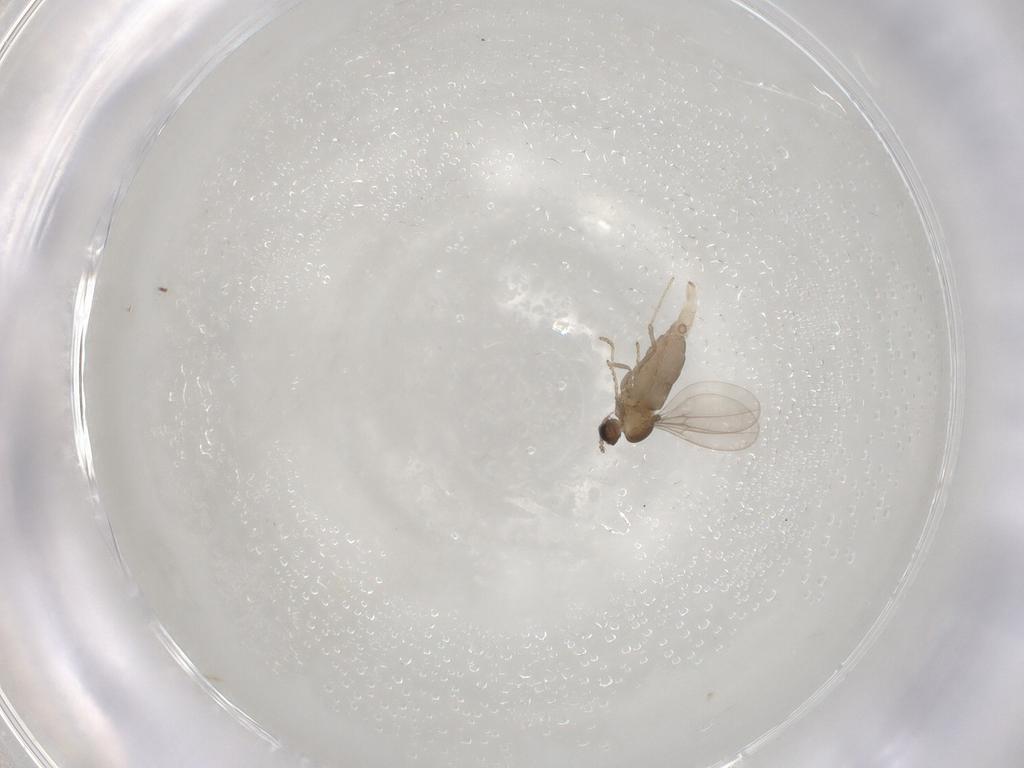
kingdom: Animalia
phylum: Arthropoda
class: Insecta
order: Diptera
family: Cecidomyiidae
